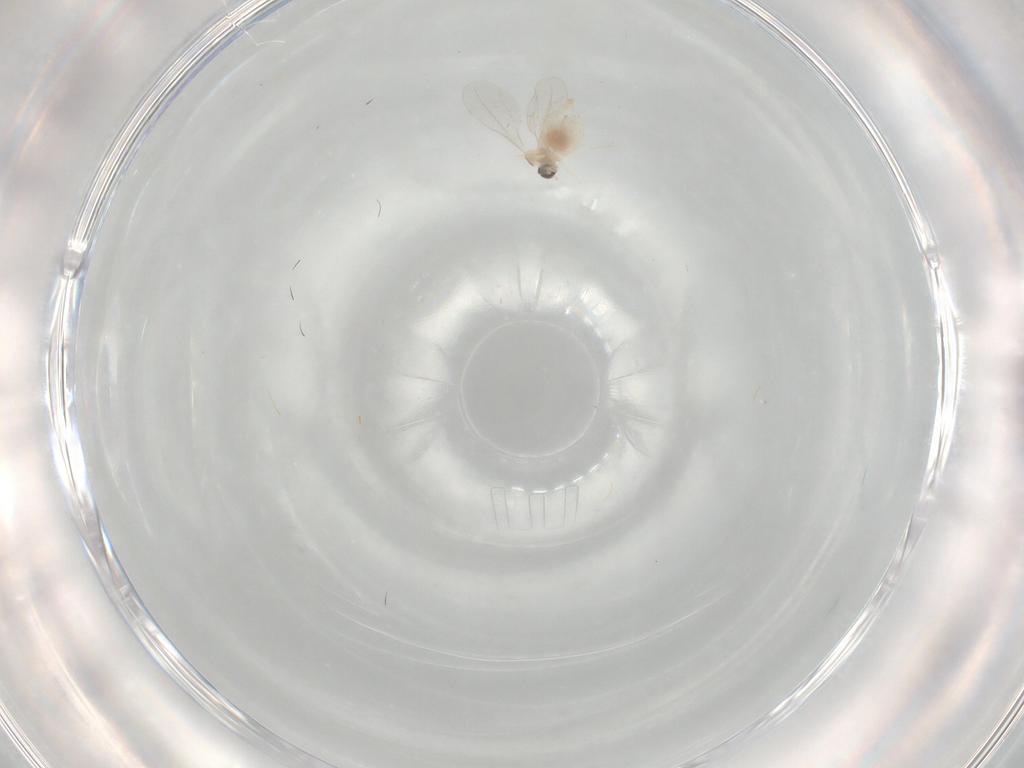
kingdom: Animalia
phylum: Arthropoda
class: Insecta
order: Diptera
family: Cecidomyiidae
